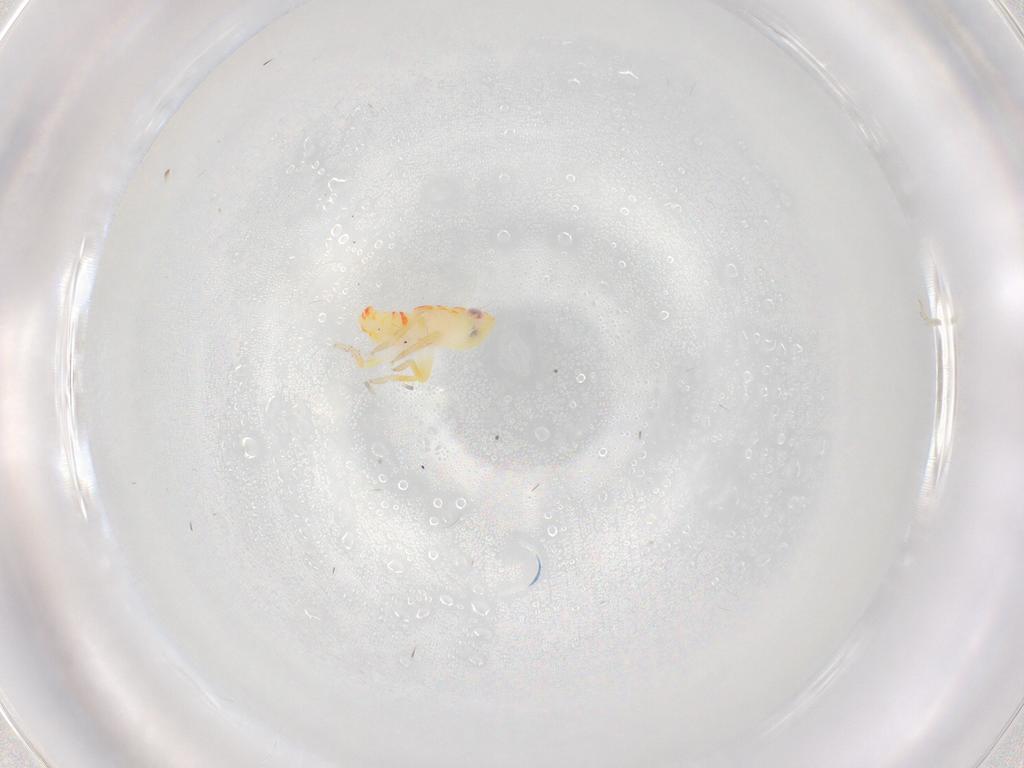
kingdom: Animalia
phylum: Arthropoda
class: Insecta
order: Hemiptera
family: Tropiduchidae
